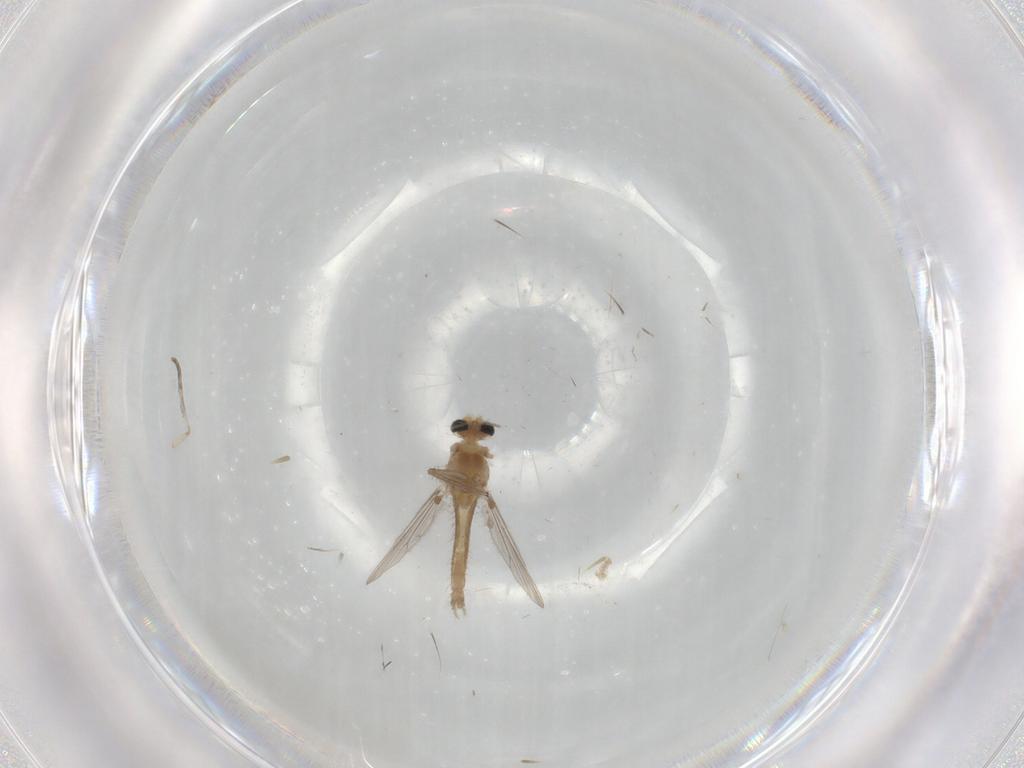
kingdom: Animalia
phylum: Arthropoda
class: Insecta
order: Diptera
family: Chironomidae
